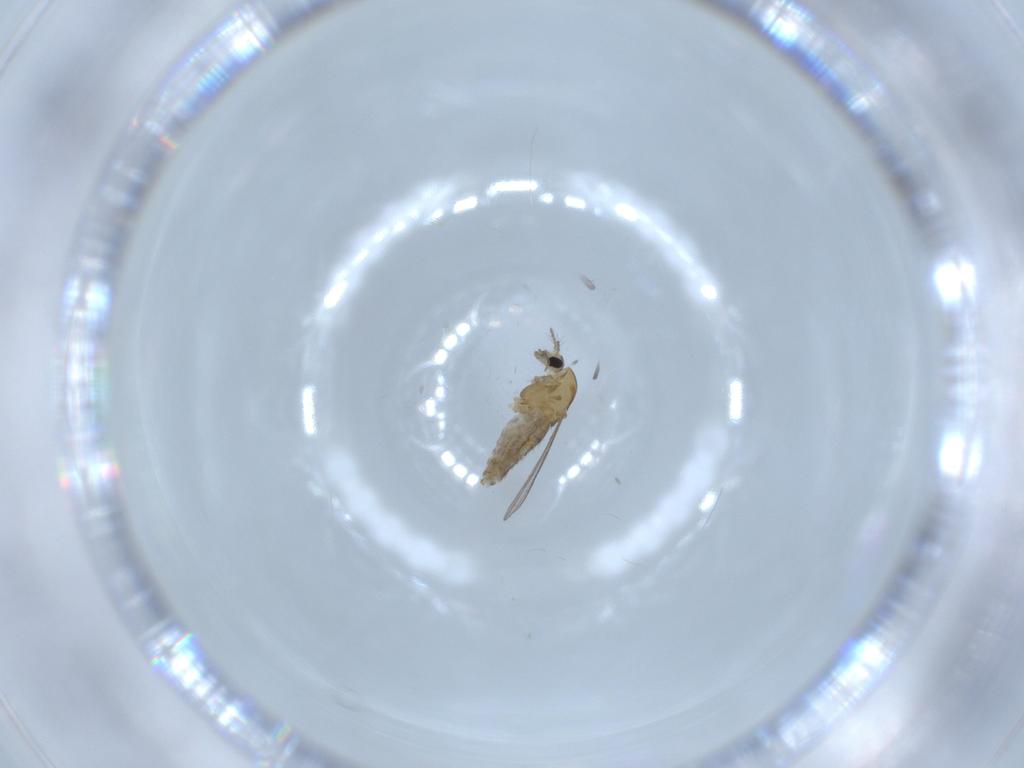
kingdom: Animalia
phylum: Arthropoda
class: Insecta
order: Diptera
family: Chironomidae
